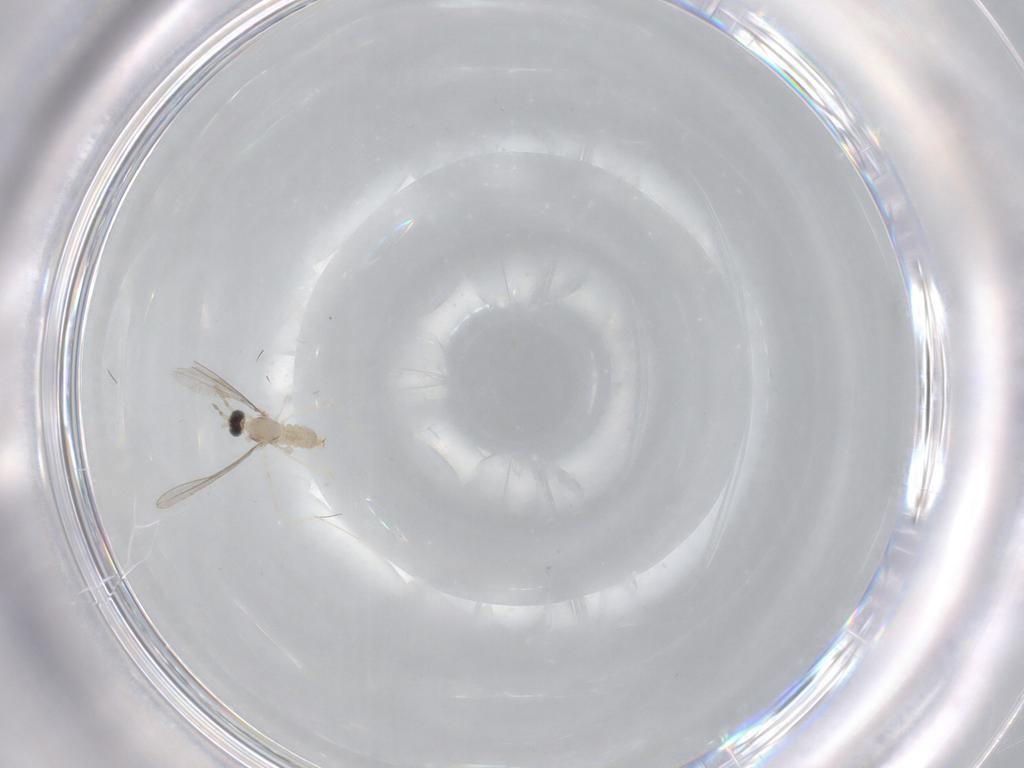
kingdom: Animalia
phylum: Arthropoda
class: Insecta
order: Diptera
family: Cecidomyiidae
